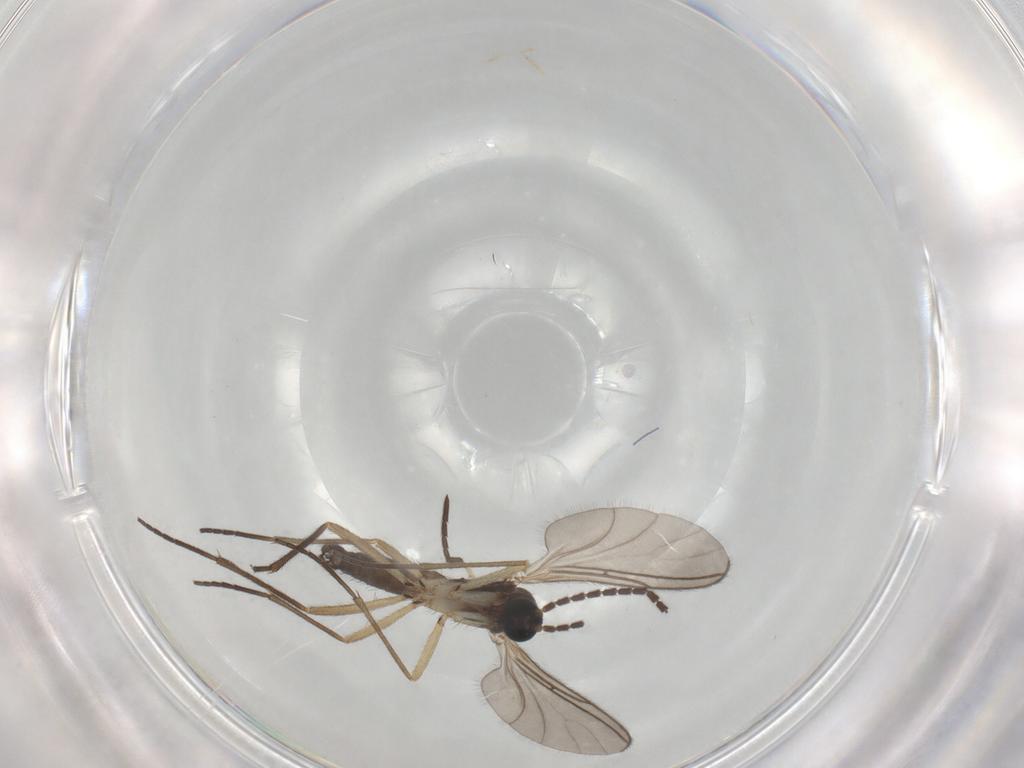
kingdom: Animalia
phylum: Arthropoda
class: Insecta
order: Diptera
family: Sciaridae
